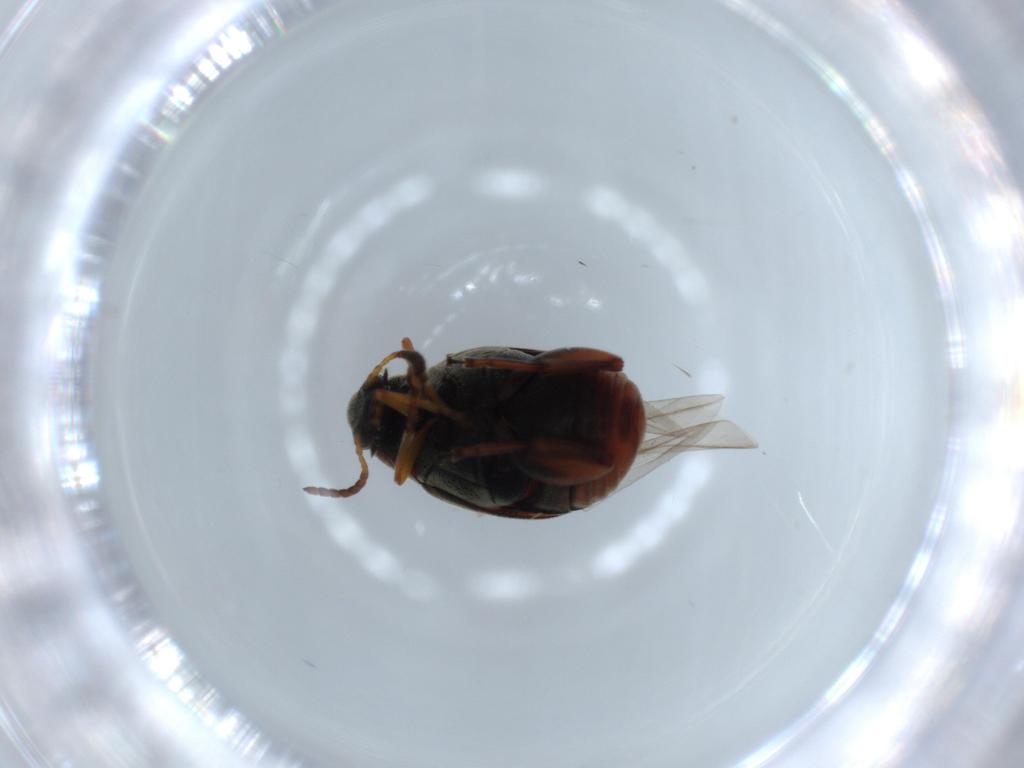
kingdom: Animalia
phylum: Arthropoda
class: Insecta
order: Coleoptera
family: Chrysomelidae
